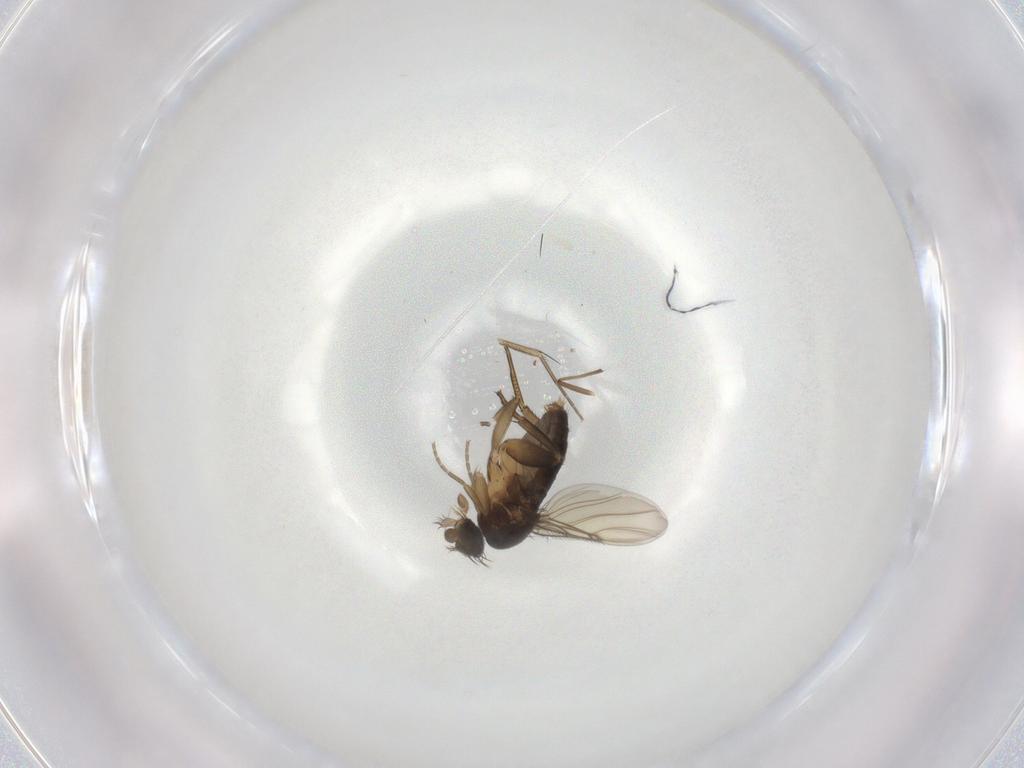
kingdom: Animalia
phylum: Arthropoda
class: Insecta
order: Diptera
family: Phoridae
